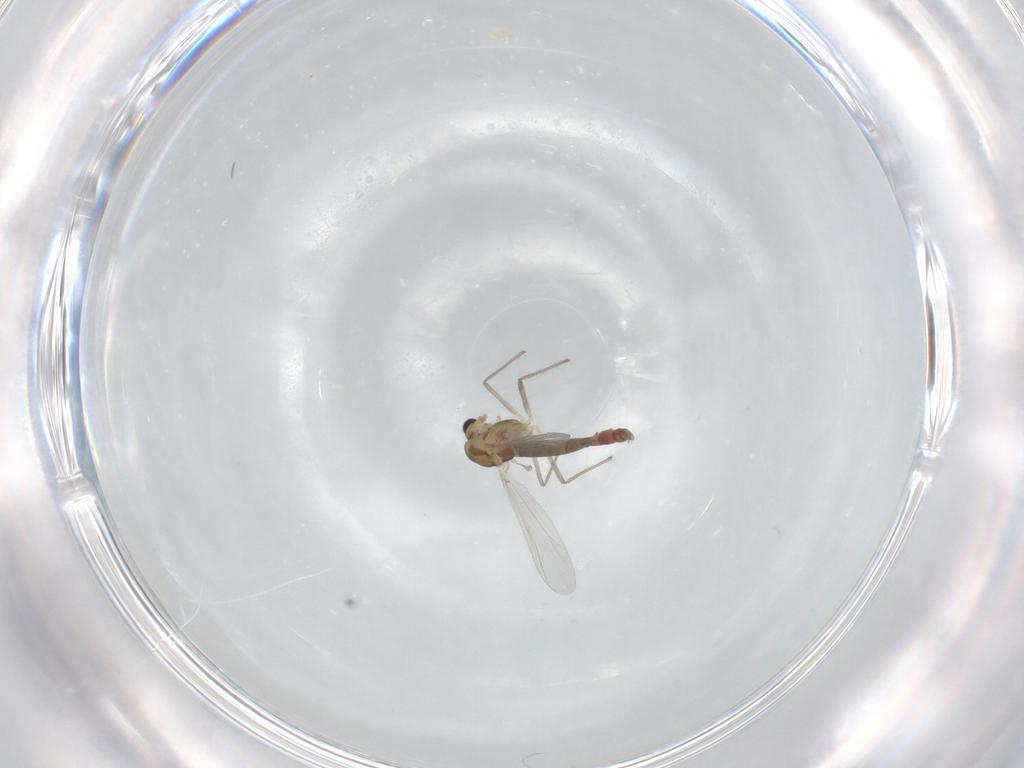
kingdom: Animalia
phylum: Arthropoda
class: Insecta
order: Diptera
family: Chironomidae
